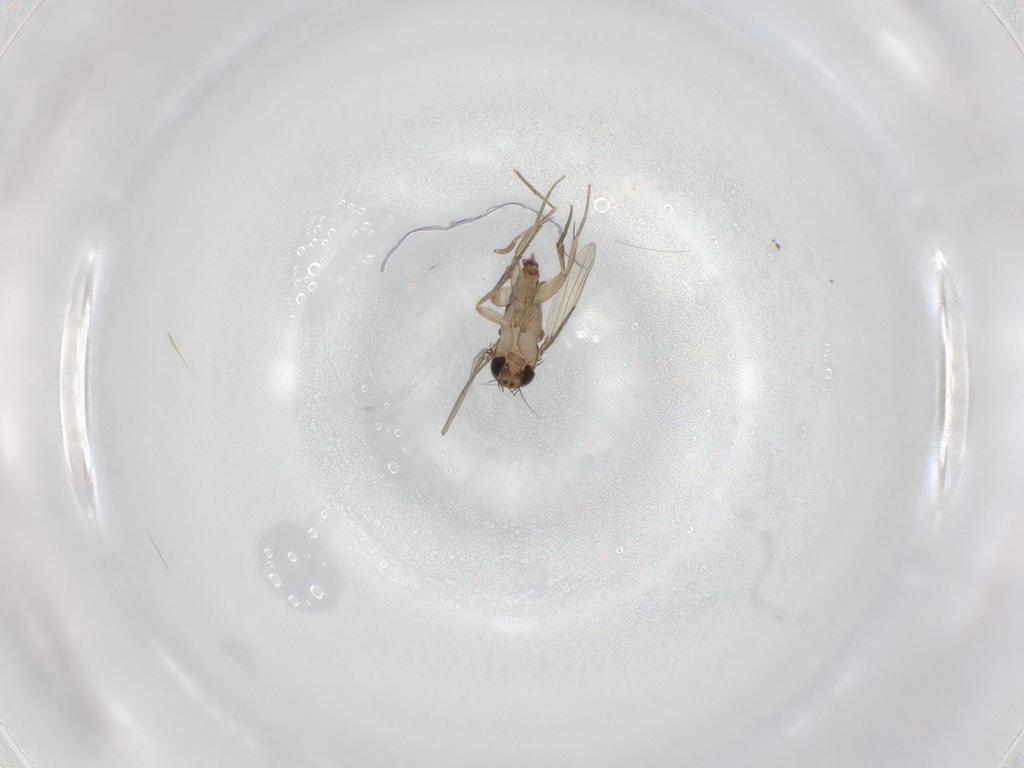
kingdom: Animalia
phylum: Arthropoda
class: Insecta
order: Diptera
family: Phoridae
